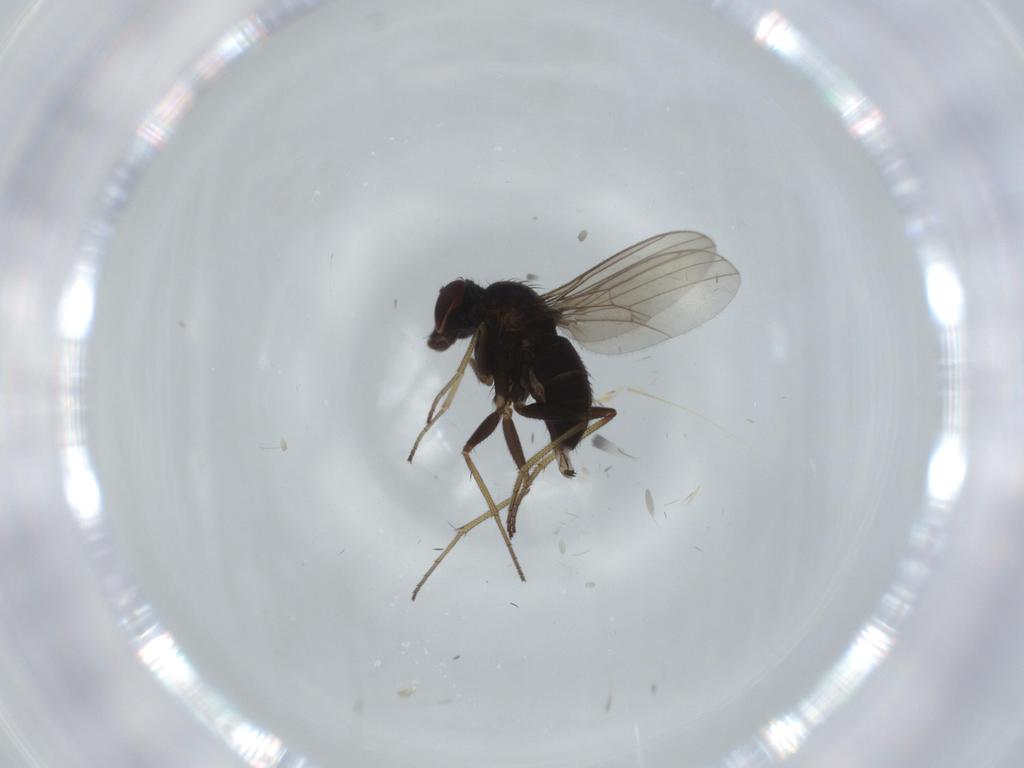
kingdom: Animalia
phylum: Arthropoda
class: Insecta
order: Diptera
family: Dolichopodidae
